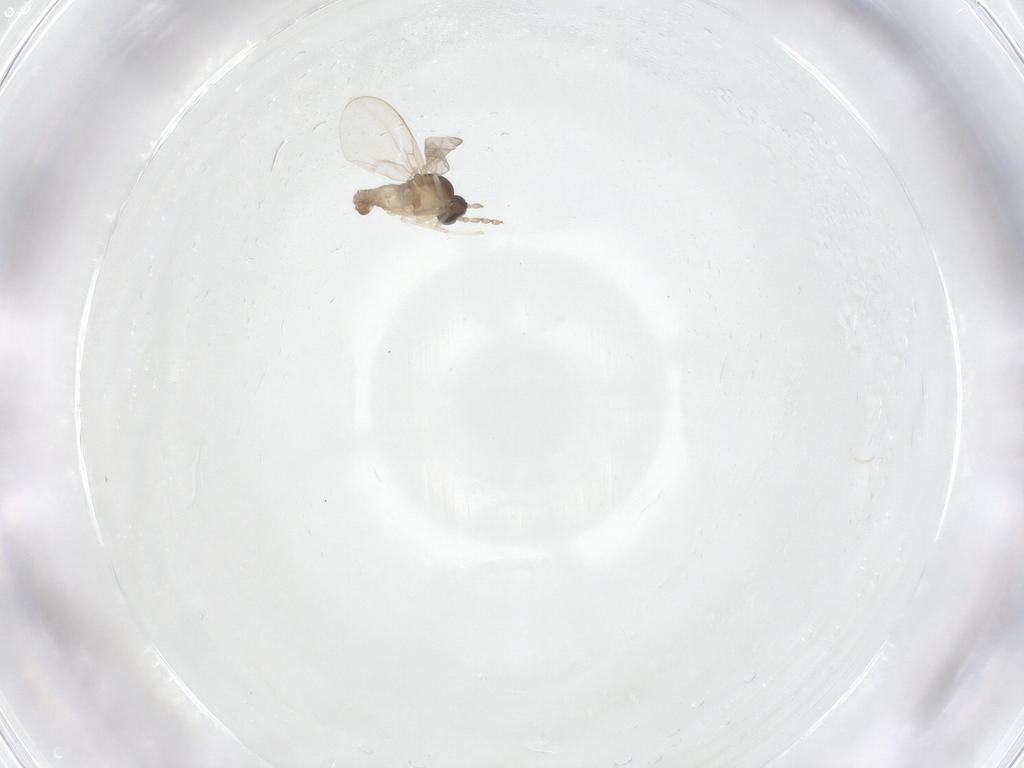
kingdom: Animalia
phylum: Arthropoda
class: Insecta
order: Diptera
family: Cecidomyiidae
